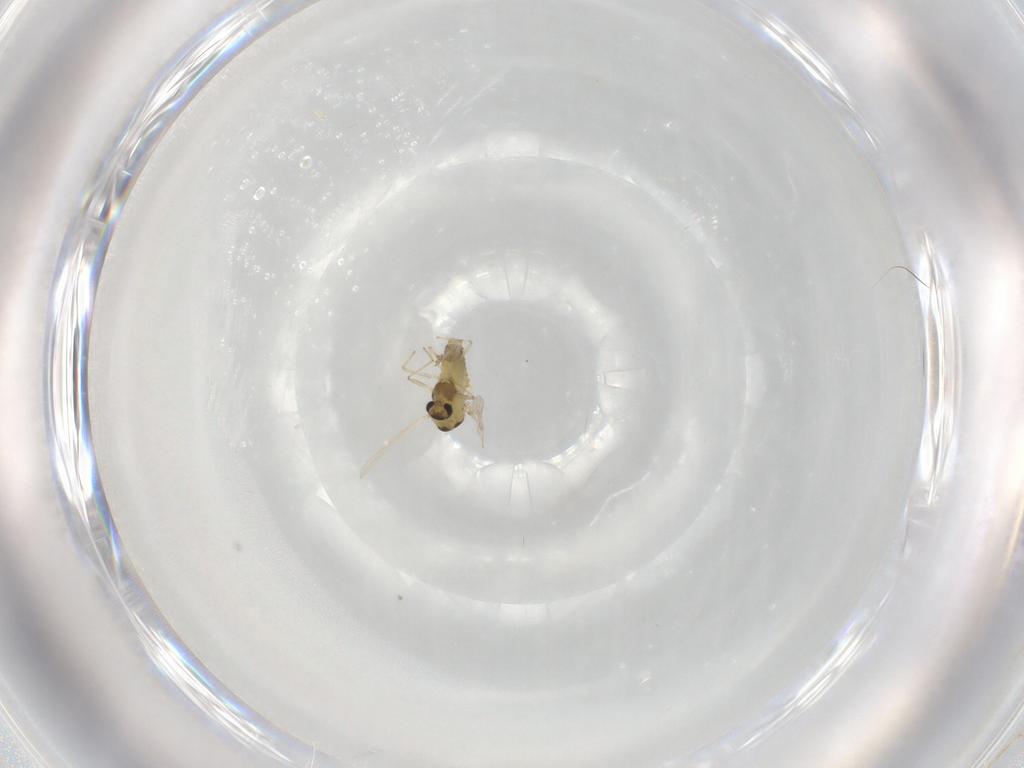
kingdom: Animalia
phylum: Arthropoda
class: Insecta
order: Diptera
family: Chironomidae
